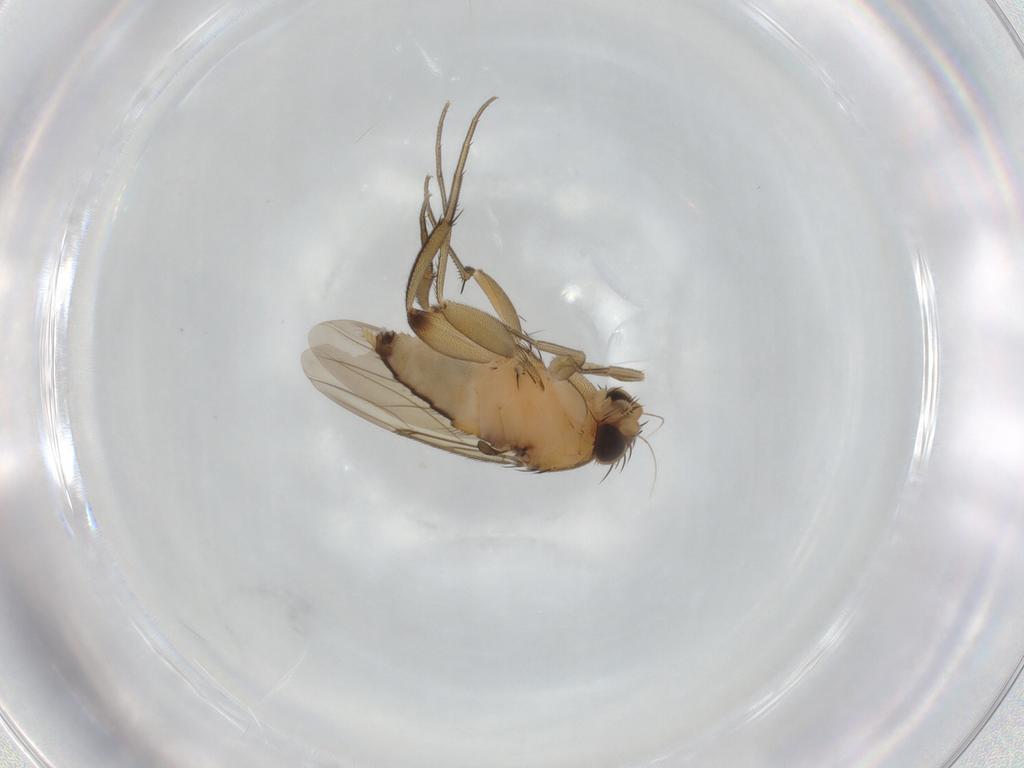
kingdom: Animalia
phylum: Arthropoda
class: Insecta
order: Diptera
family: Phoridae
